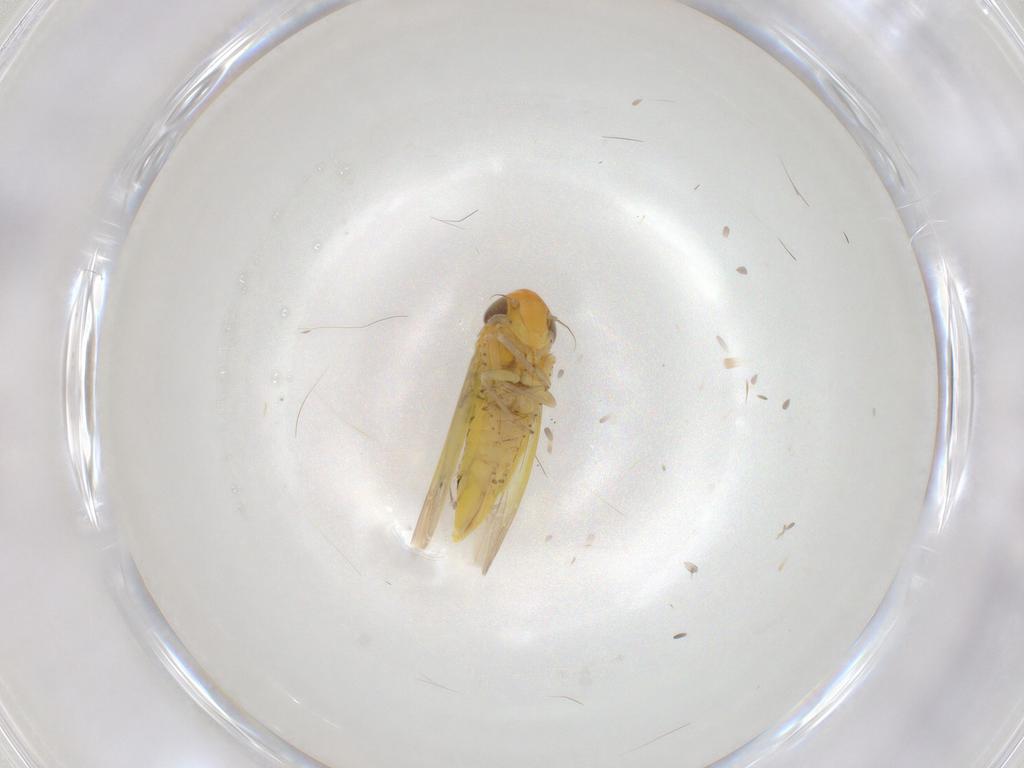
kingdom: Animalia
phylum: Arthropoda
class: Insecta
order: Hemiptera
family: Cicadellidae
